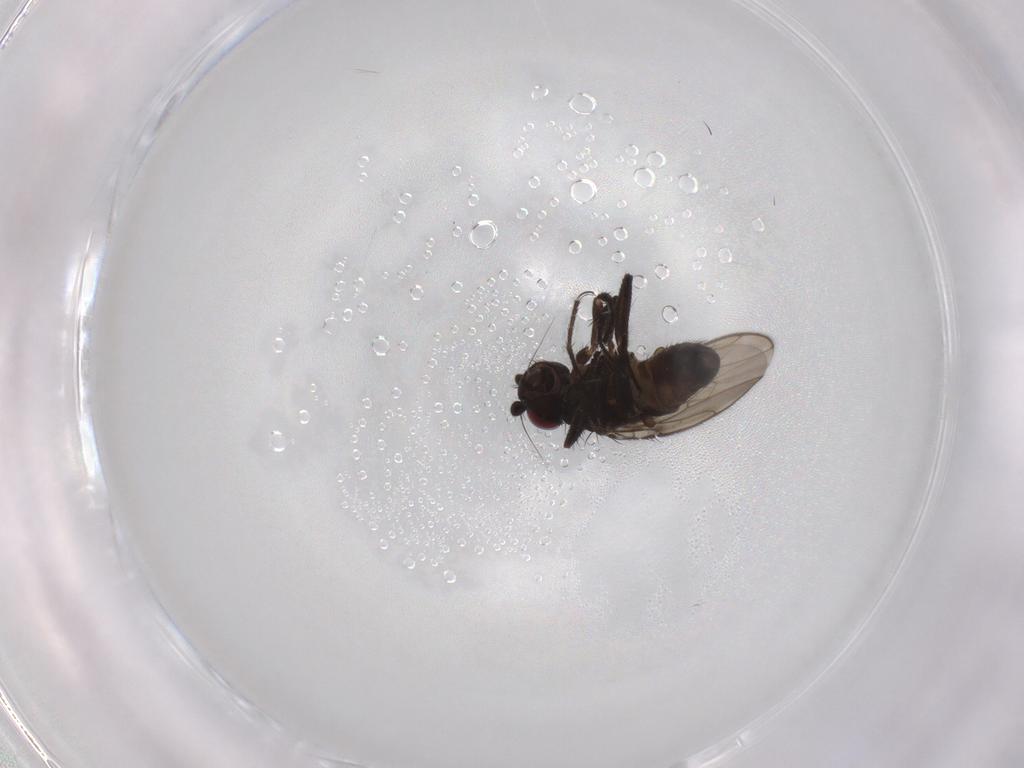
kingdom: Animalia
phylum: Arthropoda
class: Insecta
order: Diptera
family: Sphaeroceridae
